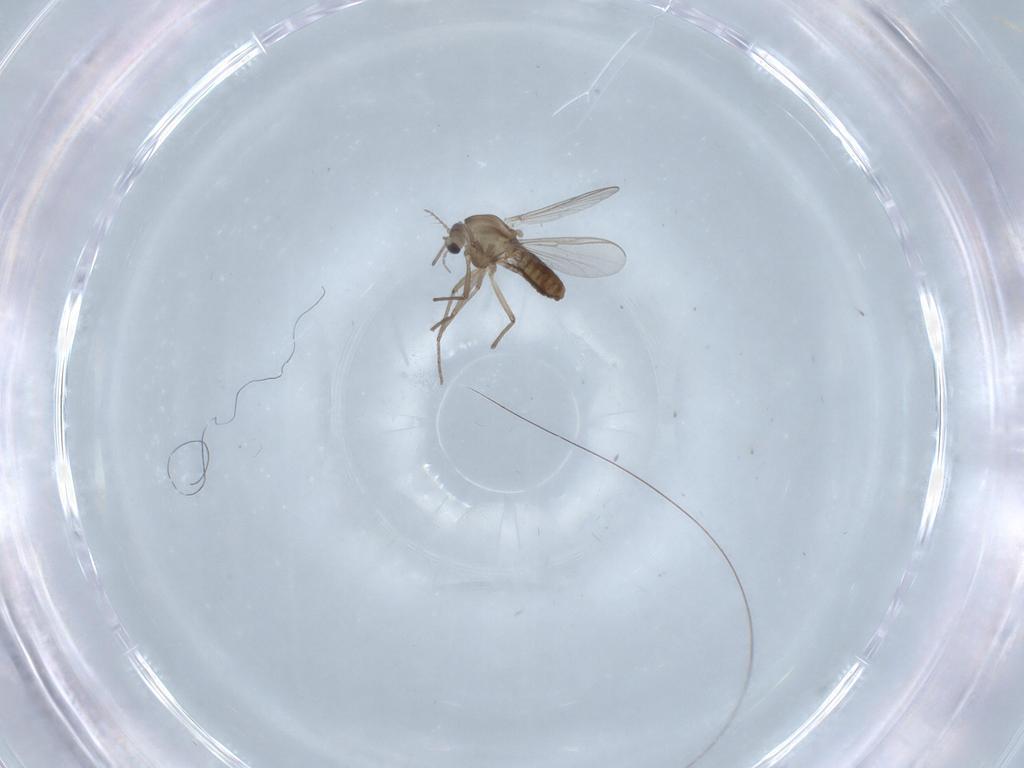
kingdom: Animalia
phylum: Arthropoda
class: Insecta
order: Diptera
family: Chironomidae
